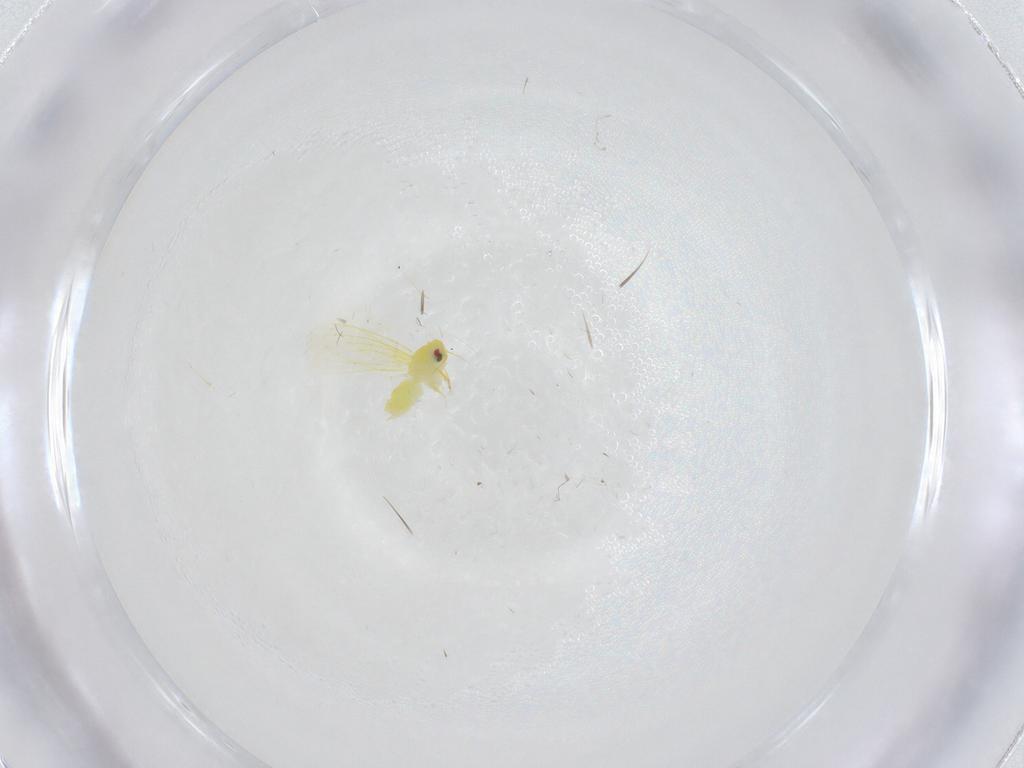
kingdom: Animalia
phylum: Arthropoda
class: Insecta
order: Hemiptera
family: Aleyrodidae
